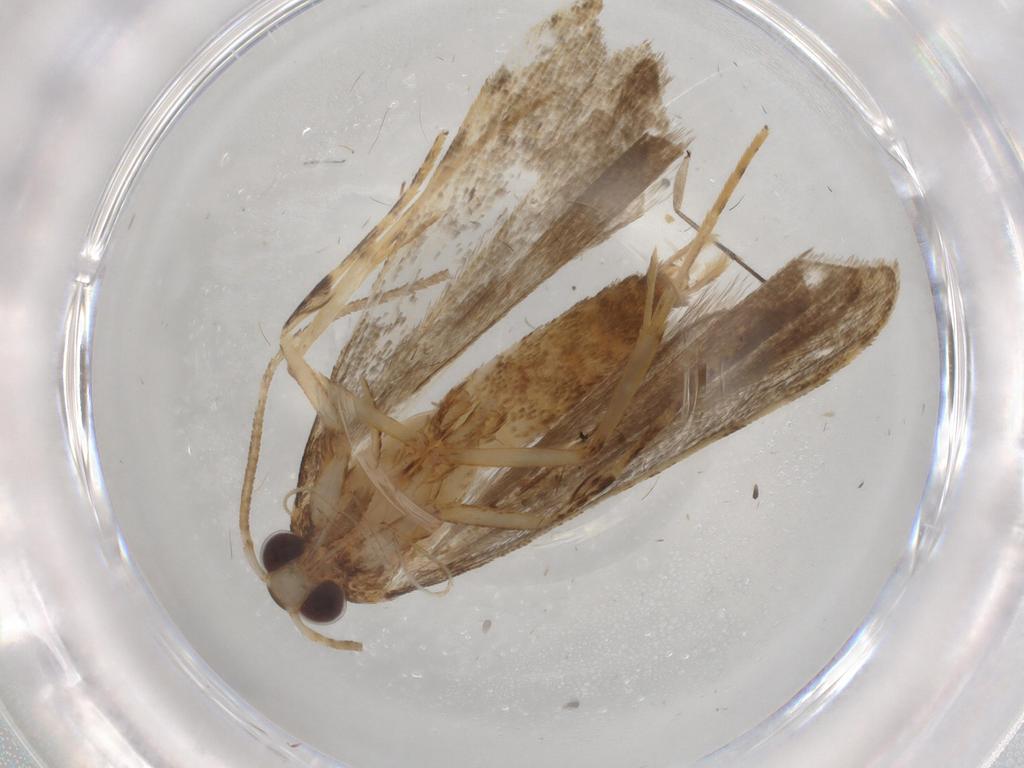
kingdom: Animalia
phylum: Arthropoda
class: Insecta
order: Lepidoptera
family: Autostichidae
